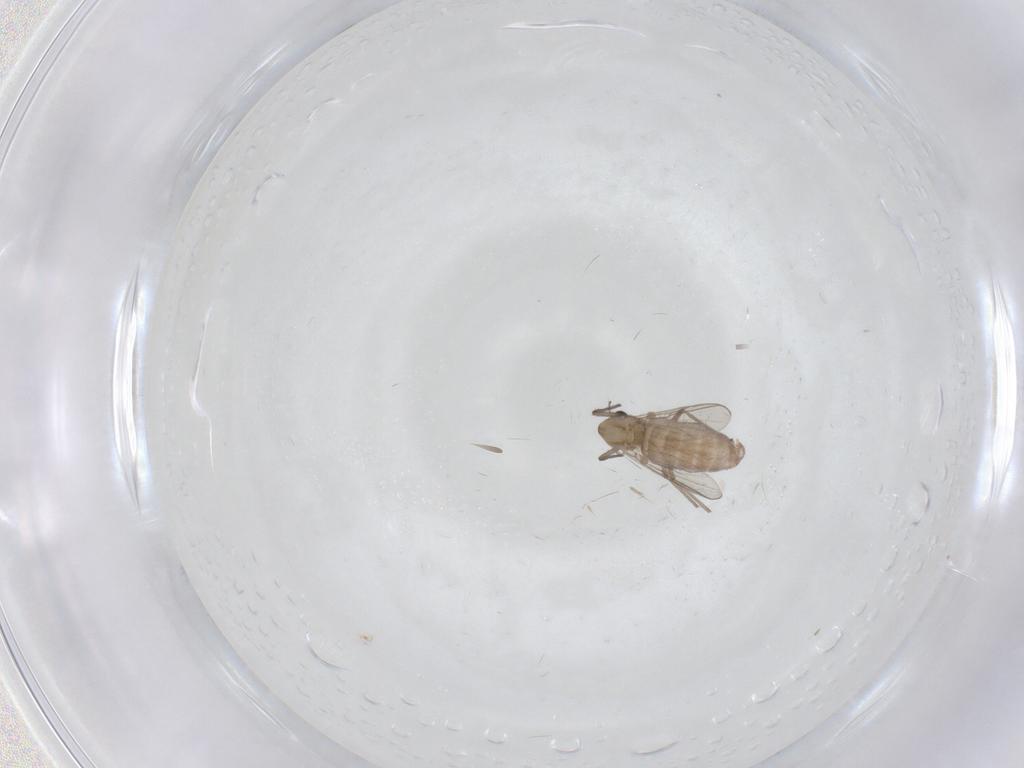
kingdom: Animalia
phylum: Arthropoda
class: Insecta
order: Diptera
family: Chironomidae
